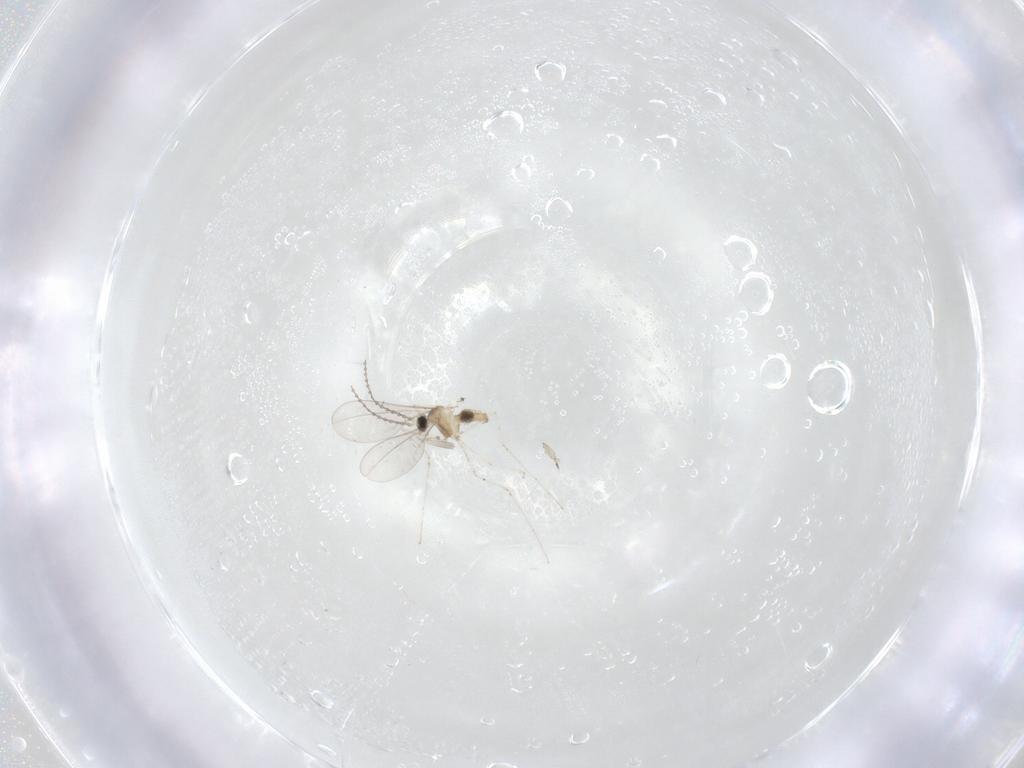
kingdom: Animalia
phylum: Arthropoda
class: Insecta
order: Diptera
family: Cecidomyiidae
